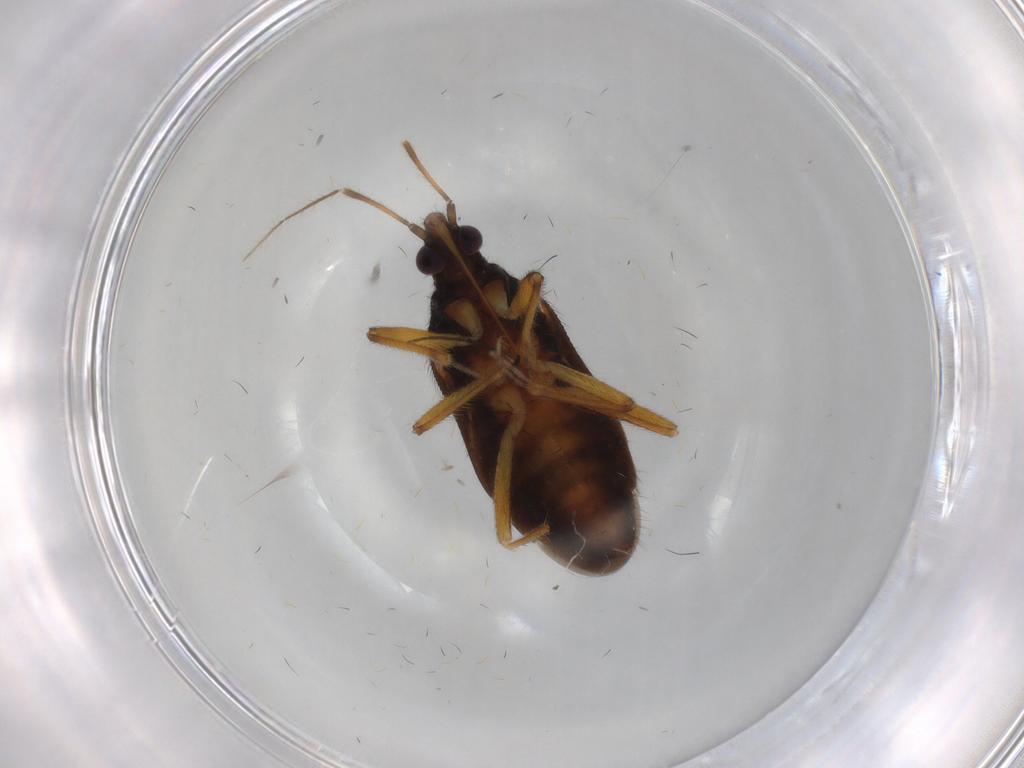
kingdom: Animalia
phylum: Arthropoda
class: Insecta
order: Hemiptera
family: Anthocoridae
